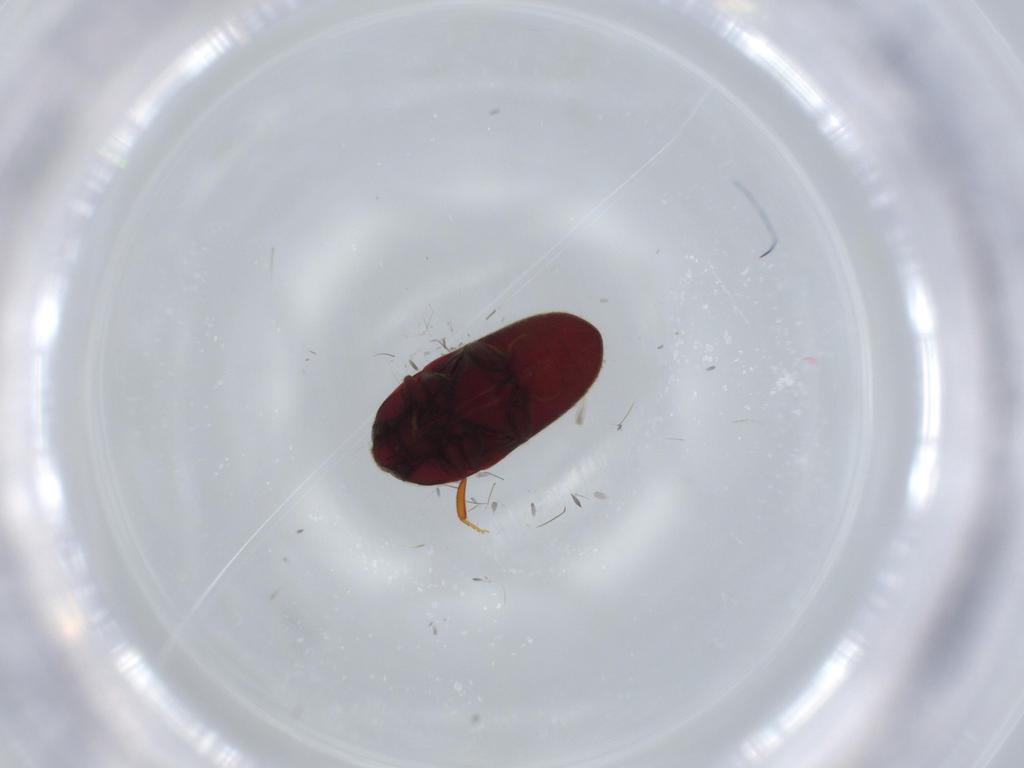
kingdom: Animalia
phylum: Arthropoda
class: Insecta
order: Coleoptera
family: Throscidae
